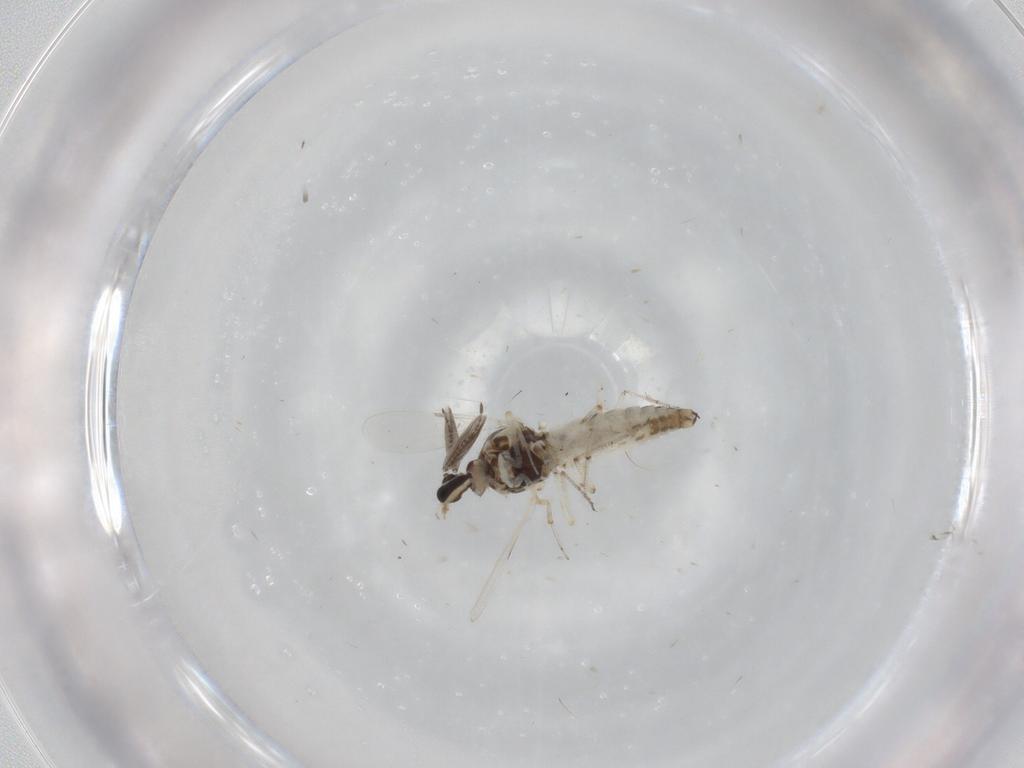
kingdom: Animalia
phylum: Arthropoda
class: Insecta
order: Diptera
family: Ceratopogonidae
